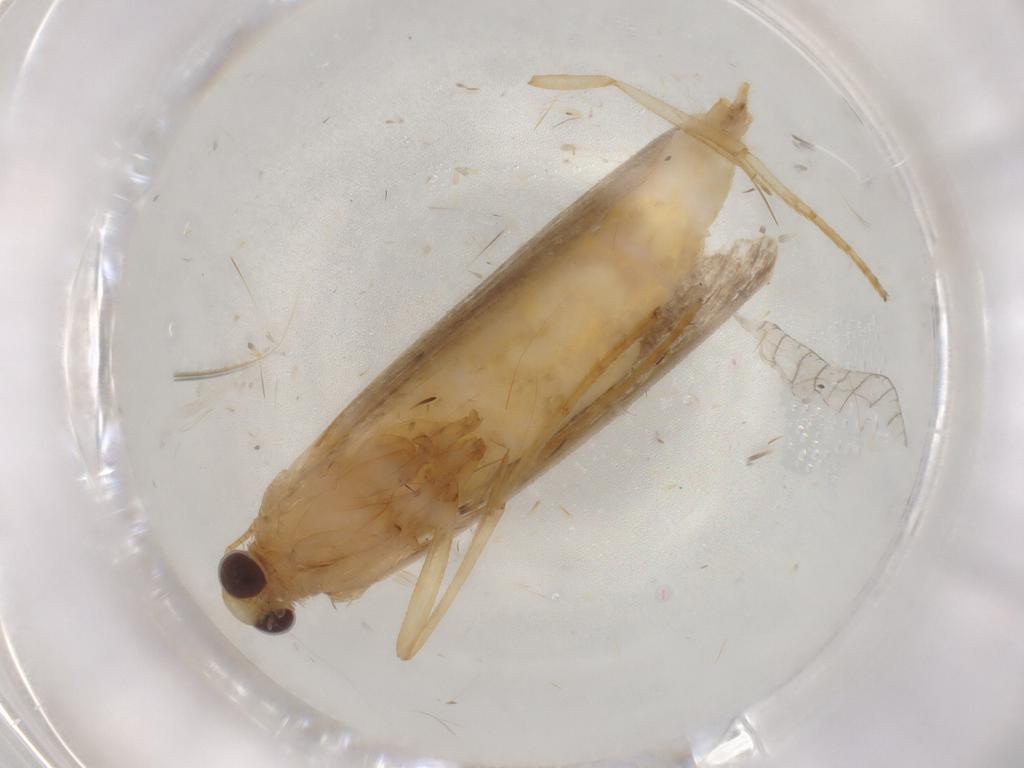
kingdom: Animalia
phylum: Arthropoda
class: Insecta
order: Lepidoptera
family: Pyralidae
